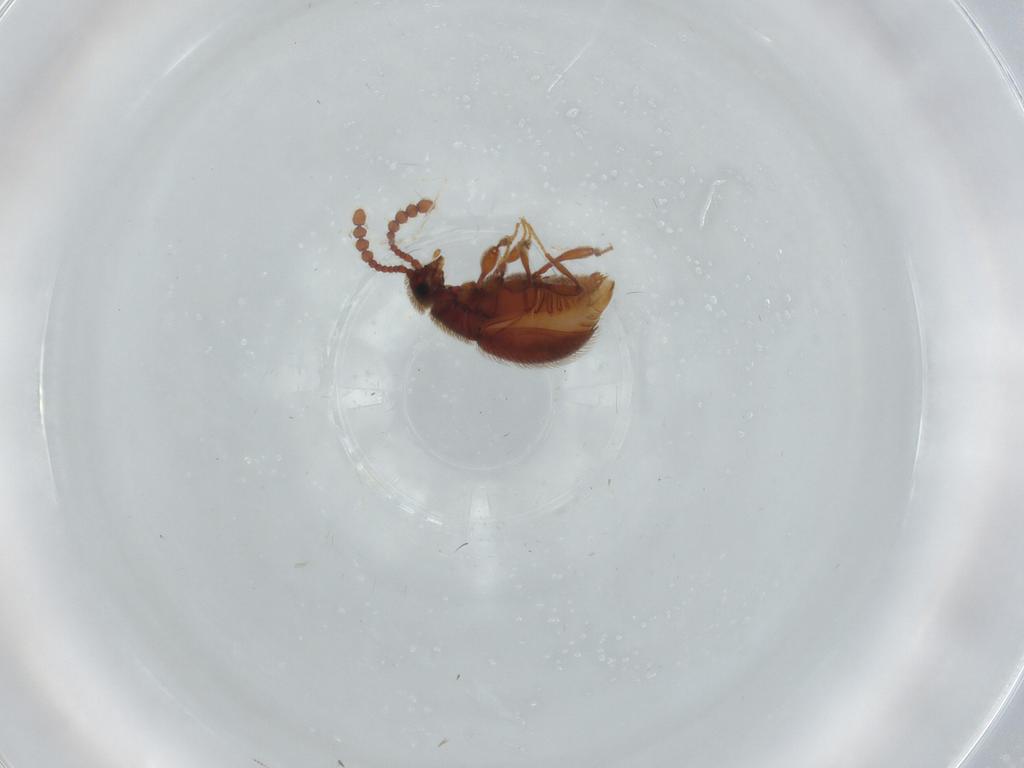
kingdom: Animalia
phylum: Arthropoda
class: Insecta
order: Coleoptera
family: Staphylinidae
